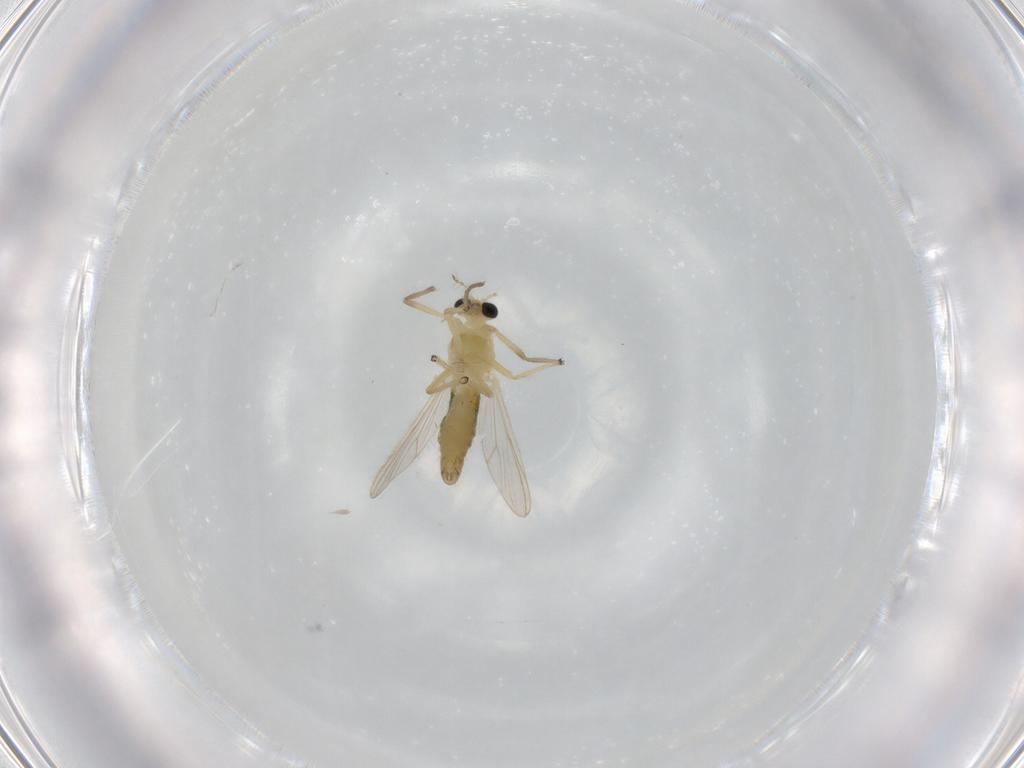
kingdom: Animalia
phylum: Arthropoda
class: Insecta
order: Diptera
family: Chironomidae
